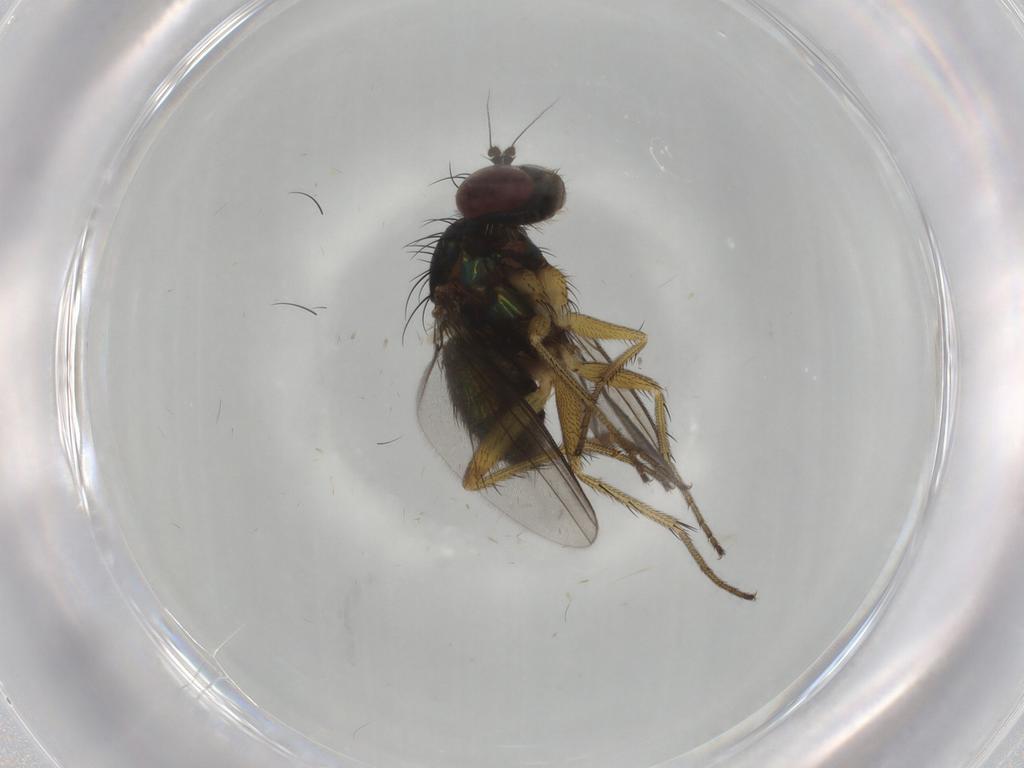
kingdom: Animalia
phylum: Arthropoda
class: Insecta
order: Diptera
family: Dolichopodidae
